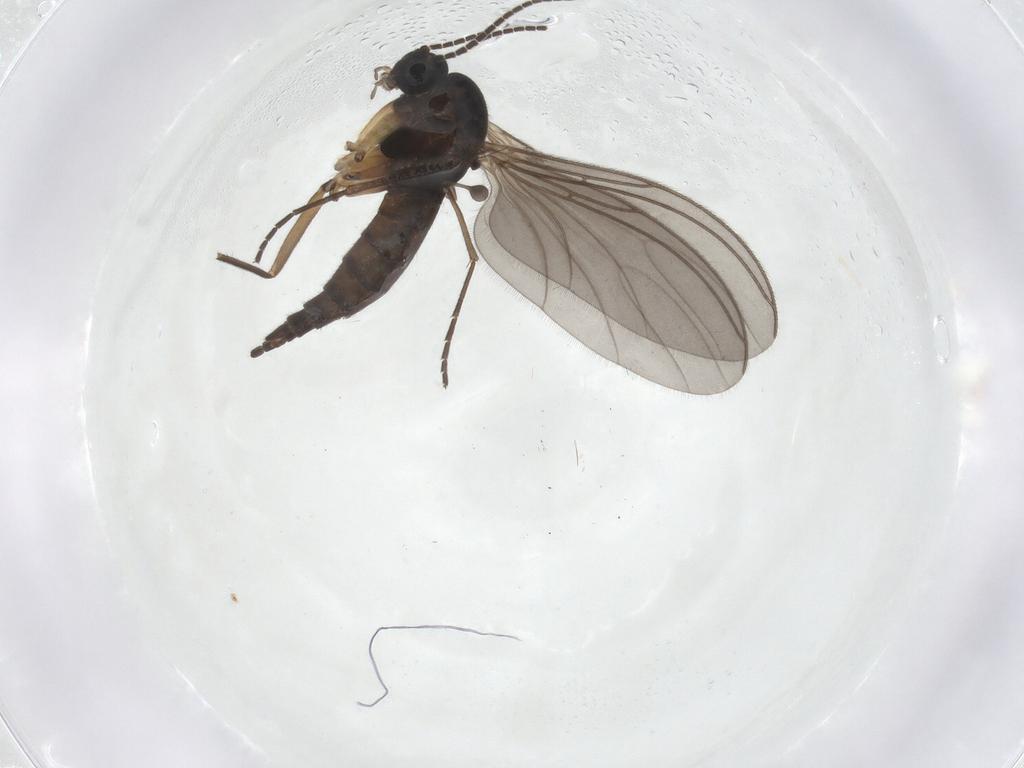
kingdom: Animalia
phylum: Arthropoda
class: Insecta
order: Diptera
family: Sciaridae
